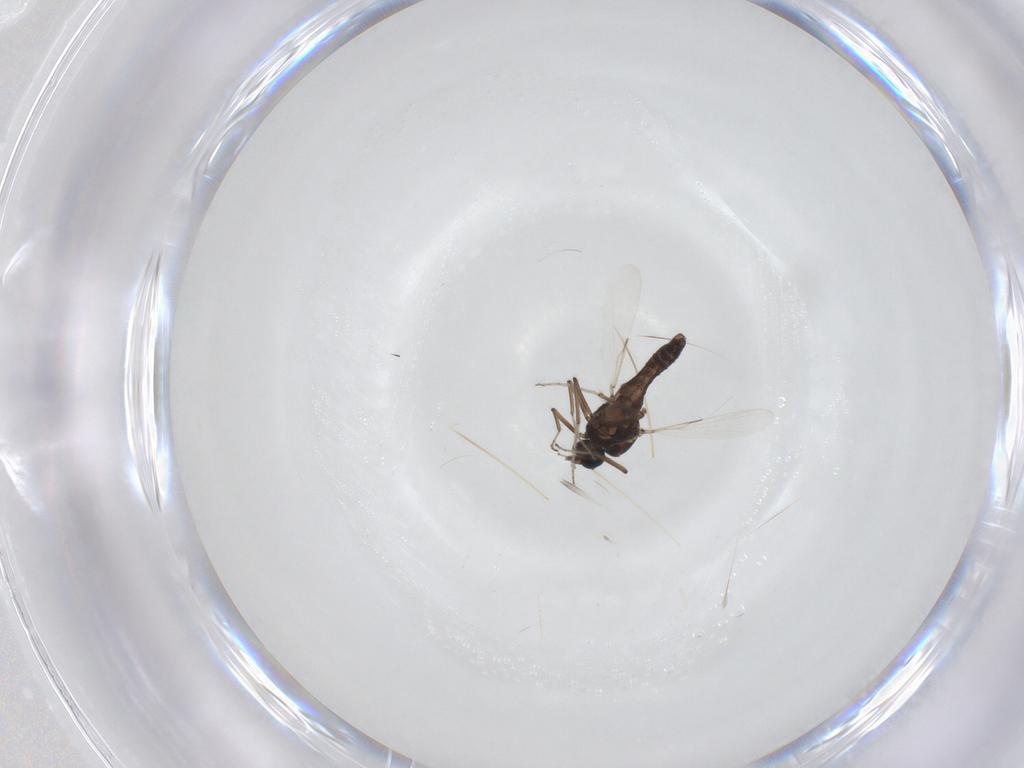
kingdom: Animalia
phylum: Arthropoda
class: Insecta
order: Diptera
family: Ceratopogonidae
